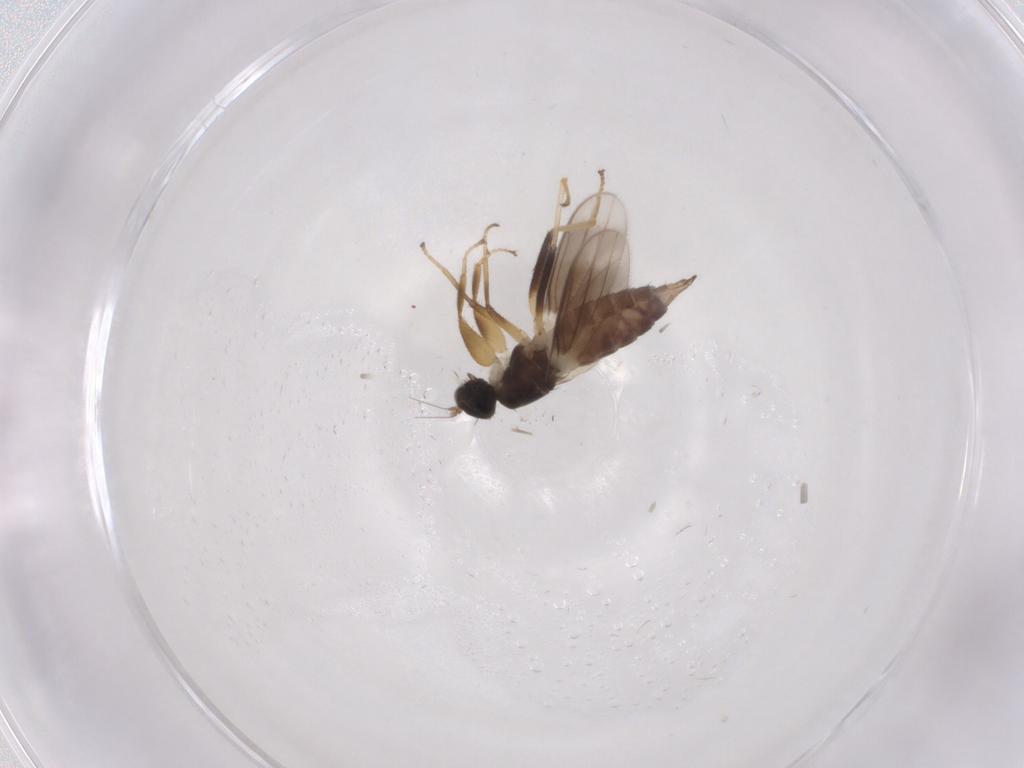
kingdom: Animalia
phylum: Arthropoda
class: Insecta
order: Diptera
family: Hybotidae
